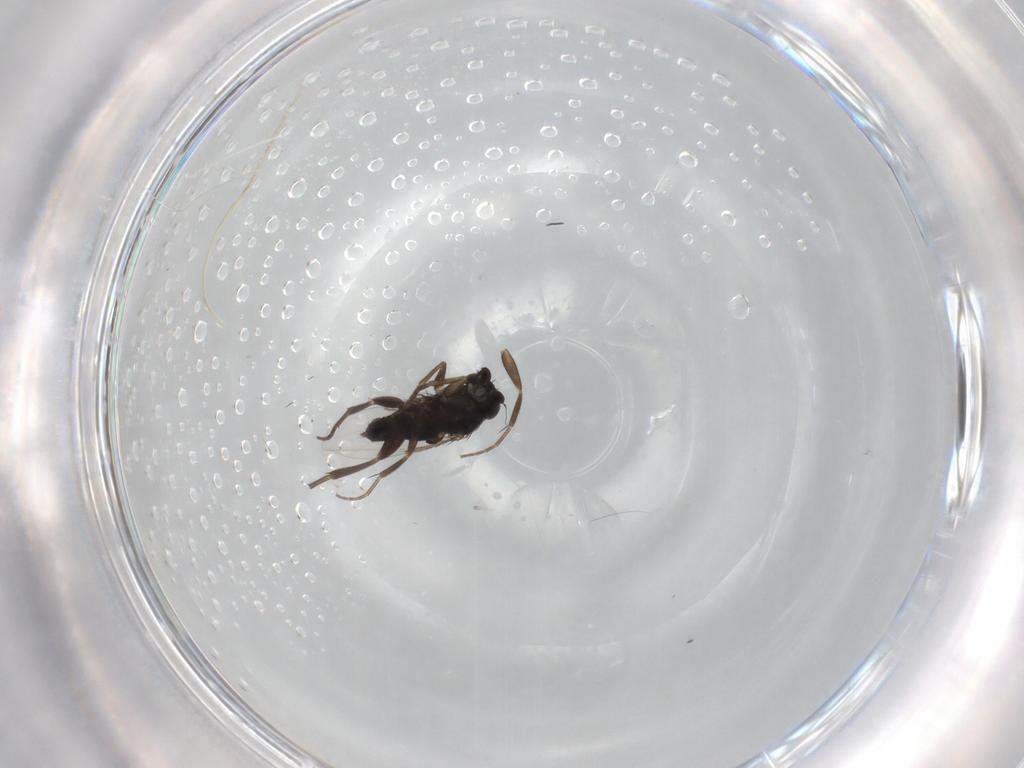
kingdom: Animalia
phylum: Arthropoda
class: Insecta
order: Diptera
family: Phoridae
